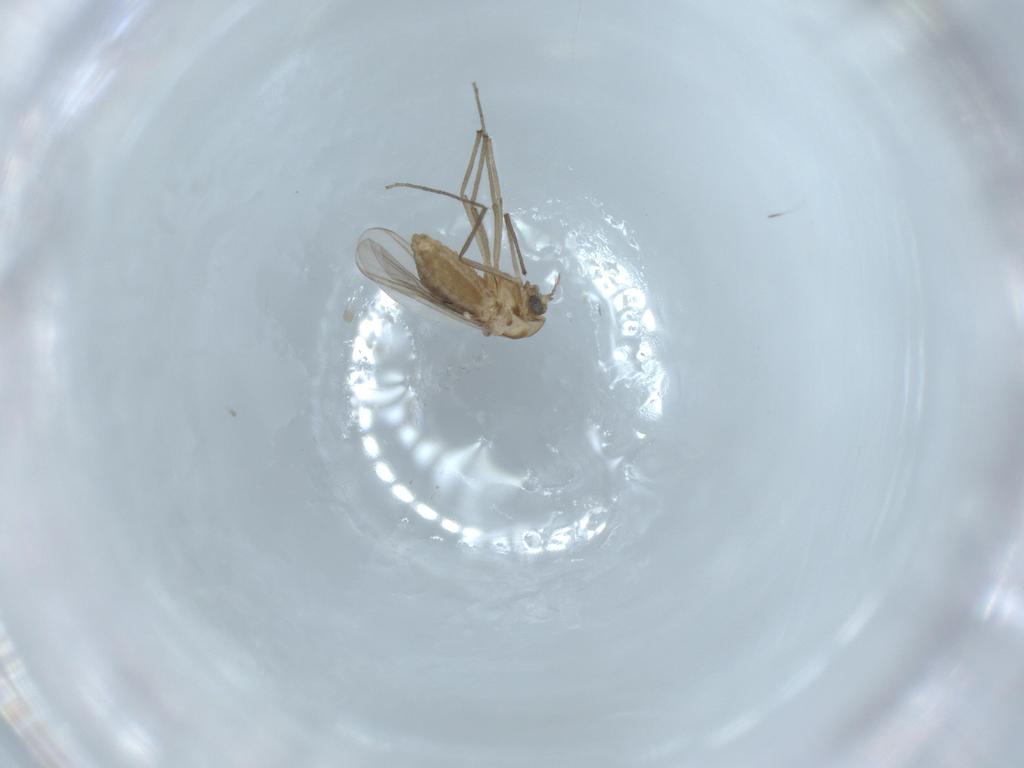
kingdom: Animalia
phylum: Arthropoda
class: Insecta
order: Diptera
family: Chironomidae
